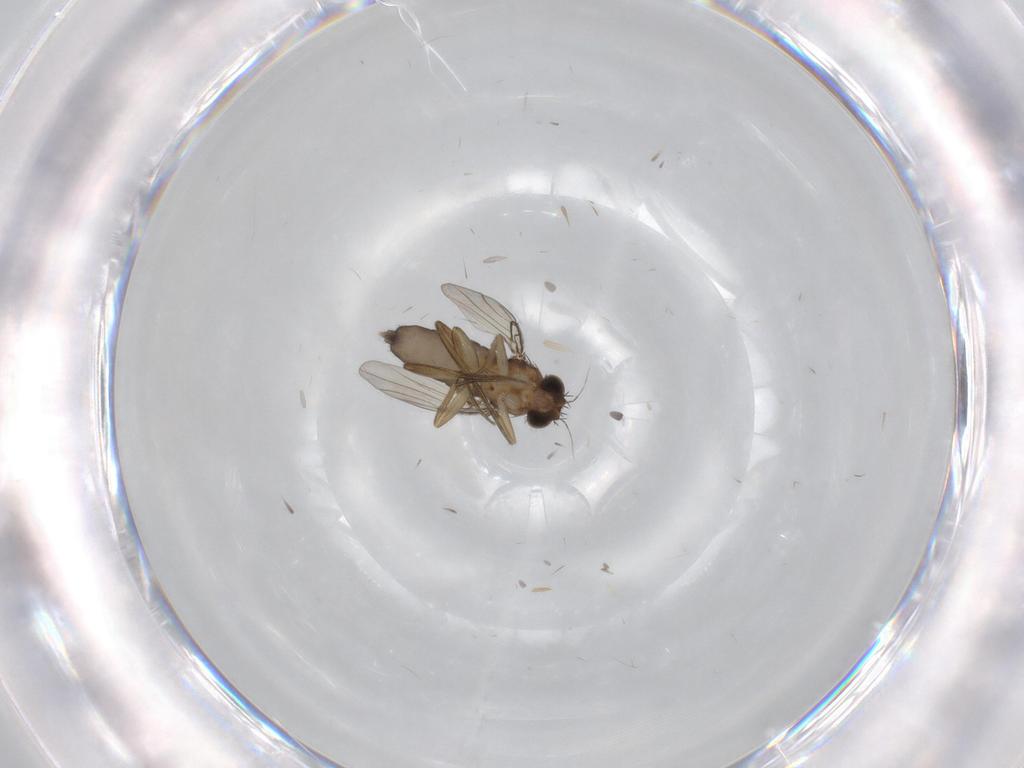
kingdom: Animalia
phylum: Arthropoda
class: Insecta
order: Diptera
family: Phoridae
